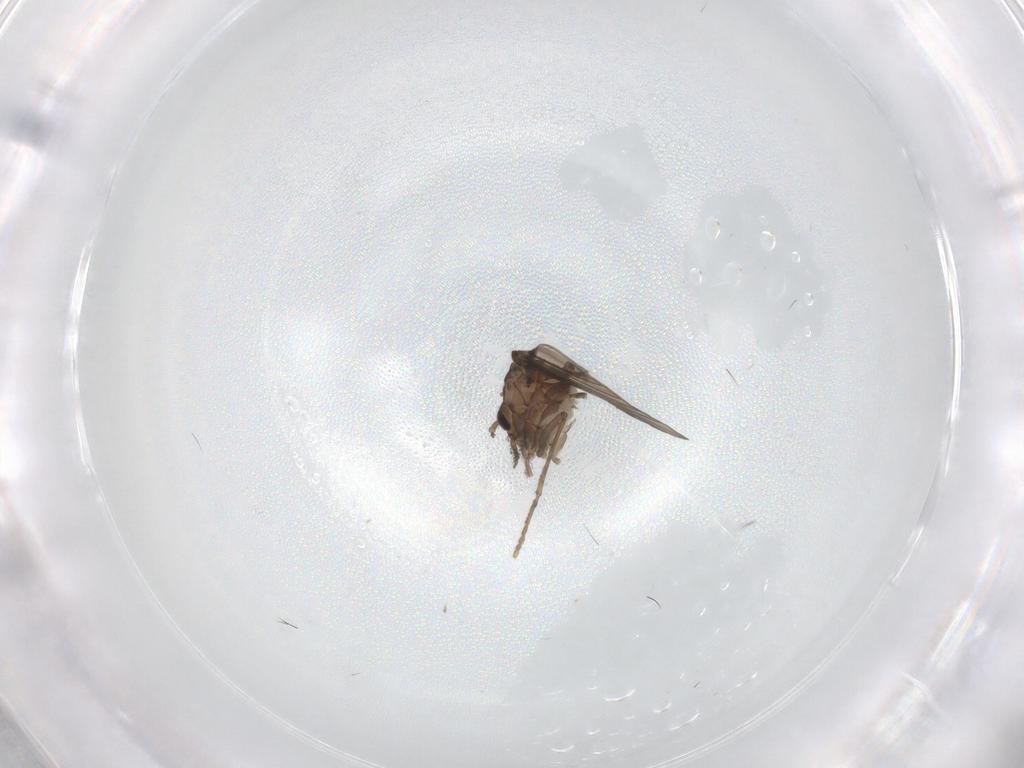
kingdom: Animalia
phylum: Arthropoda
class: Insecta
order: Diptera
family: Psychodidae
